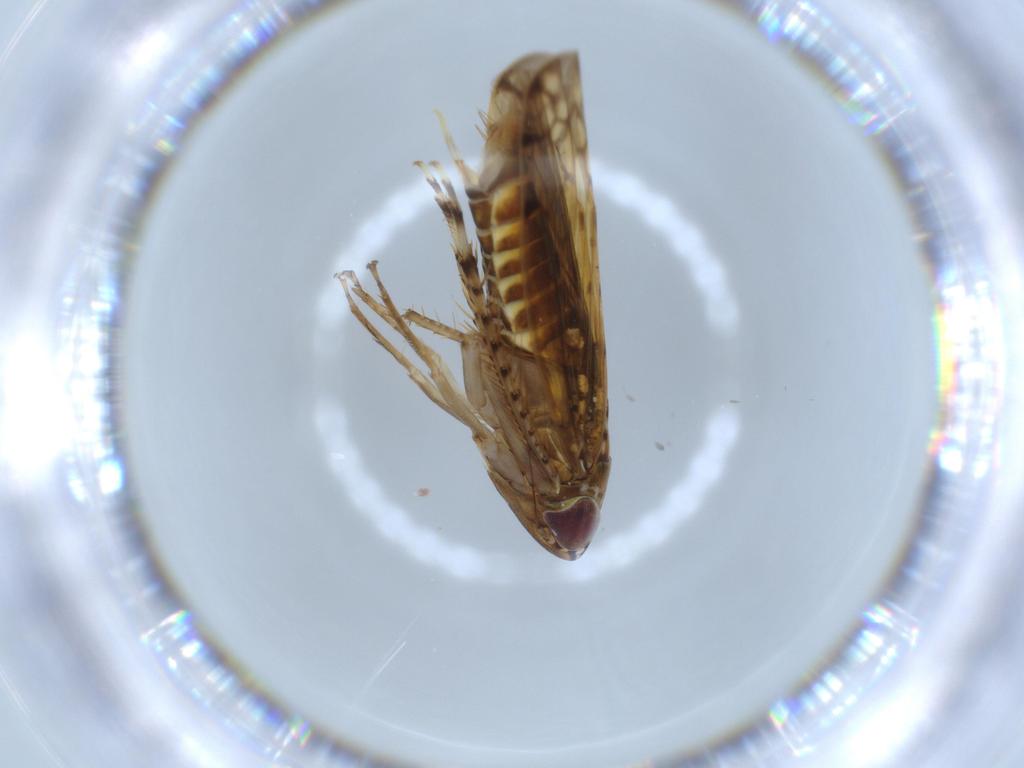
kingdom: Animalia
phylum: Arthropoda
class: Insecta
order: Hemiptera
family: Aleyrodidae
